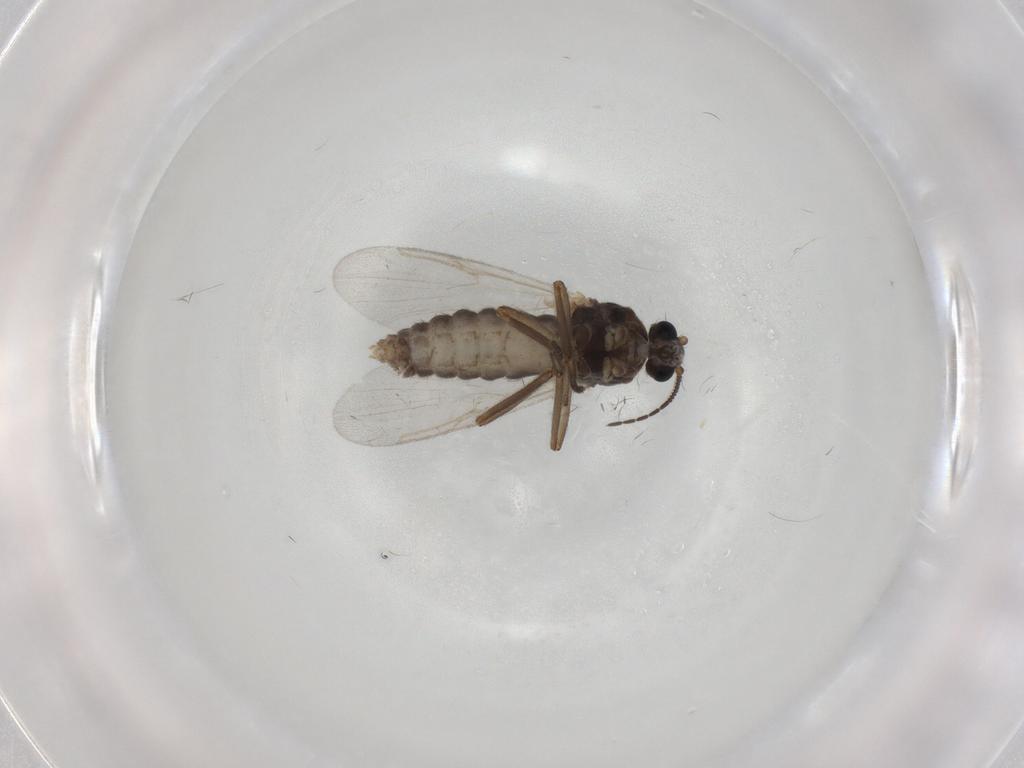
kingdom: Animalia
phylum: Arthropoda
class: Insecta
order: Diptera
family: Ceratopogonidae
